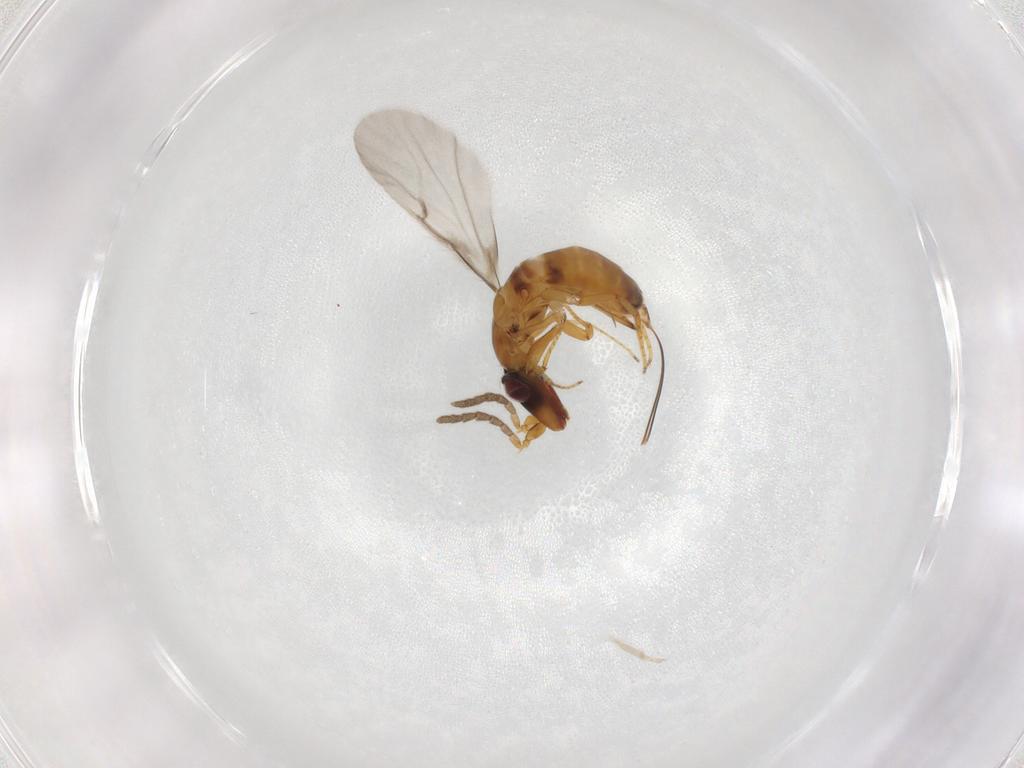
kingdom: Animalia
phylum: Arthropoda
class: Insecta
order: Hymenoptera
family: Agaonidae
